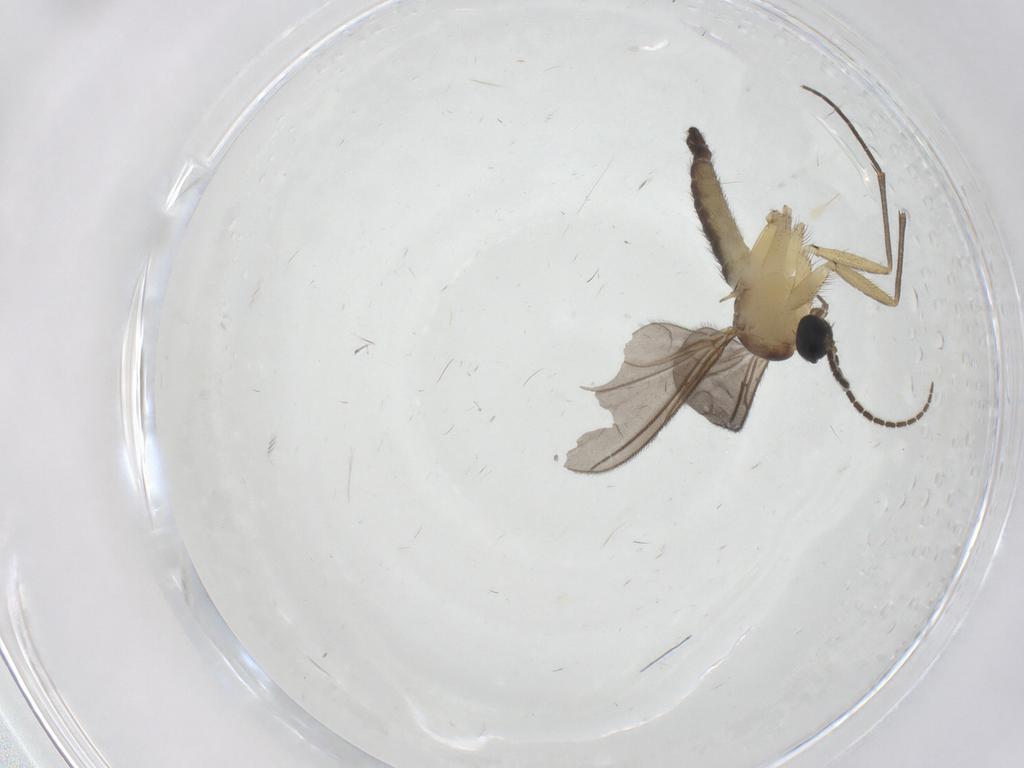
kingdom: Animalia
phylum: Arthropoda
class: Insecta
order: Diptera
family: Sciaridae
